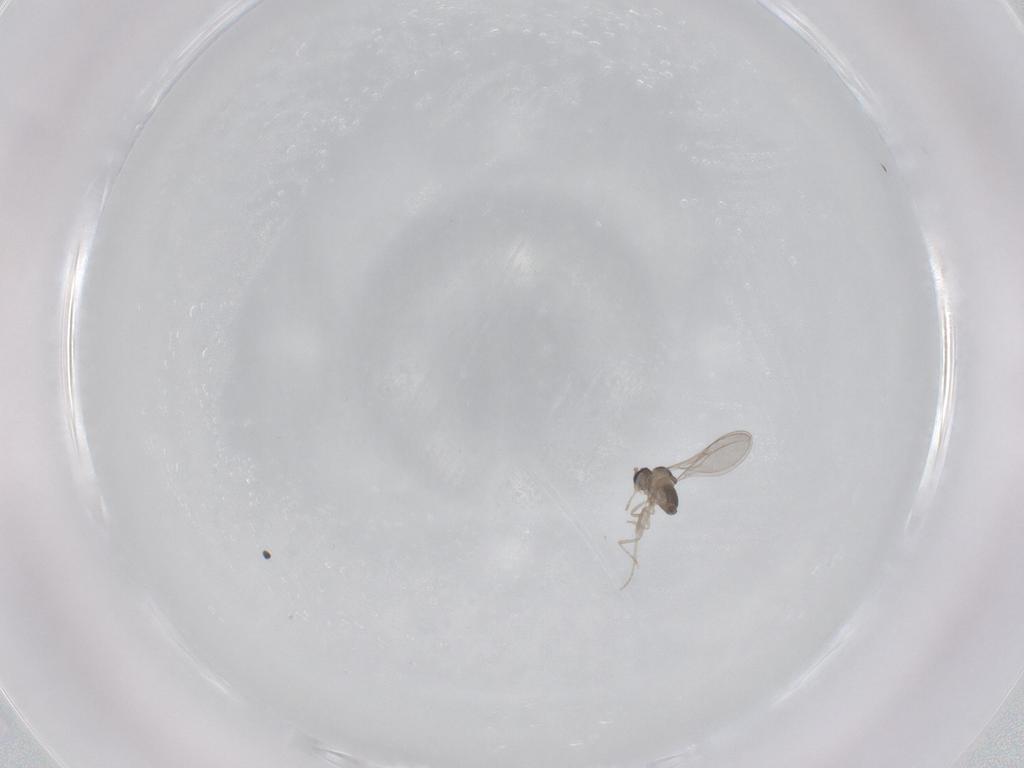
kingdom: Animalia
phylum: Arthropoda
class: Insecta
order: Diptera
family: Cecidomyiidae
